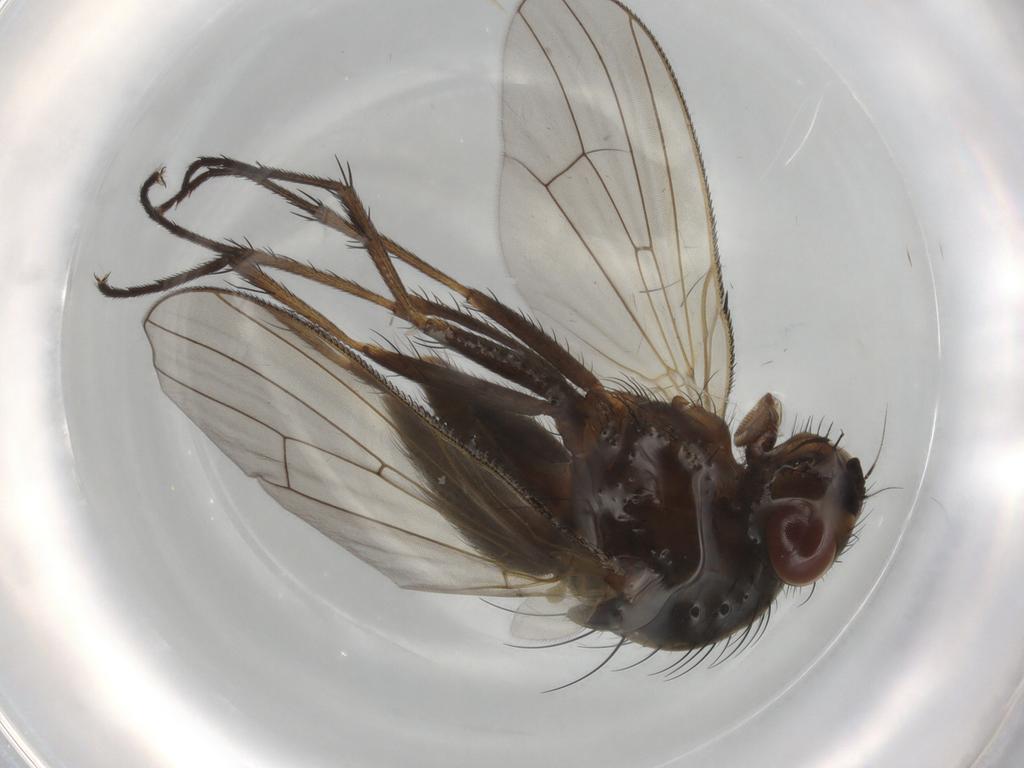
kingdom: Animalia
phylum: Arthropoda
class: Insecta
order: Diptera
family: Anthomyiidae
